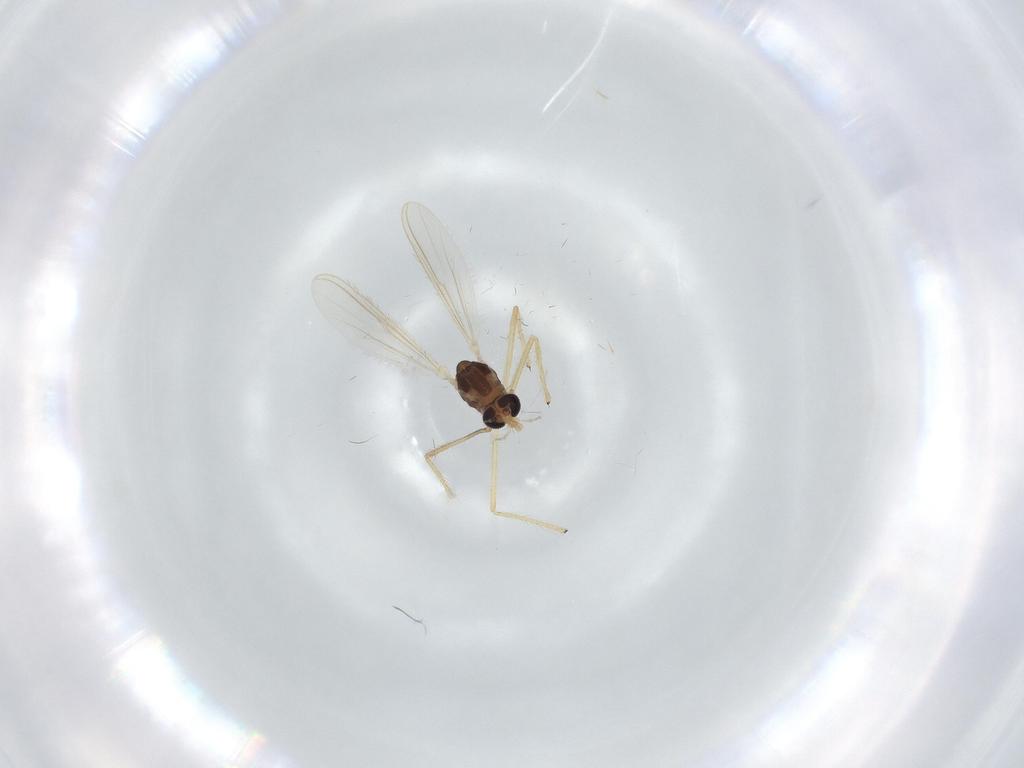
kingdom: Animalia
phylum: Arthropoda
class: Insecta
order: Diptera
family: Chironomidae
